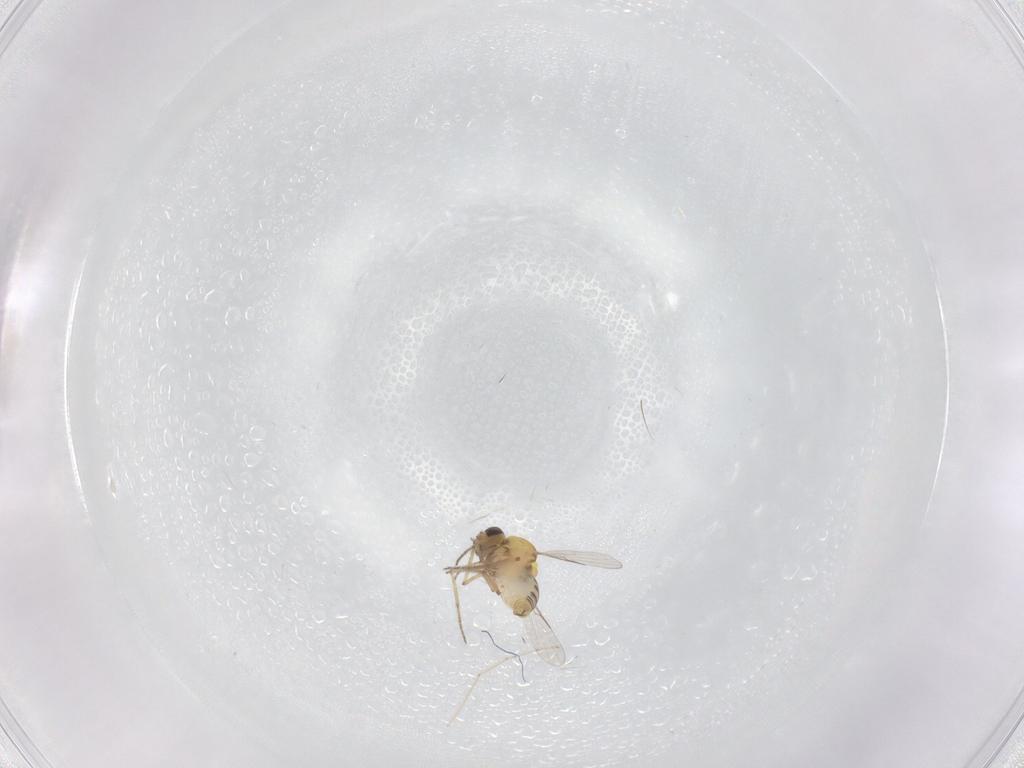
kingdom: Animalia
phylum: Arthropoda
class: Insecta
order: Diptera
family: Ceratopogonidae
